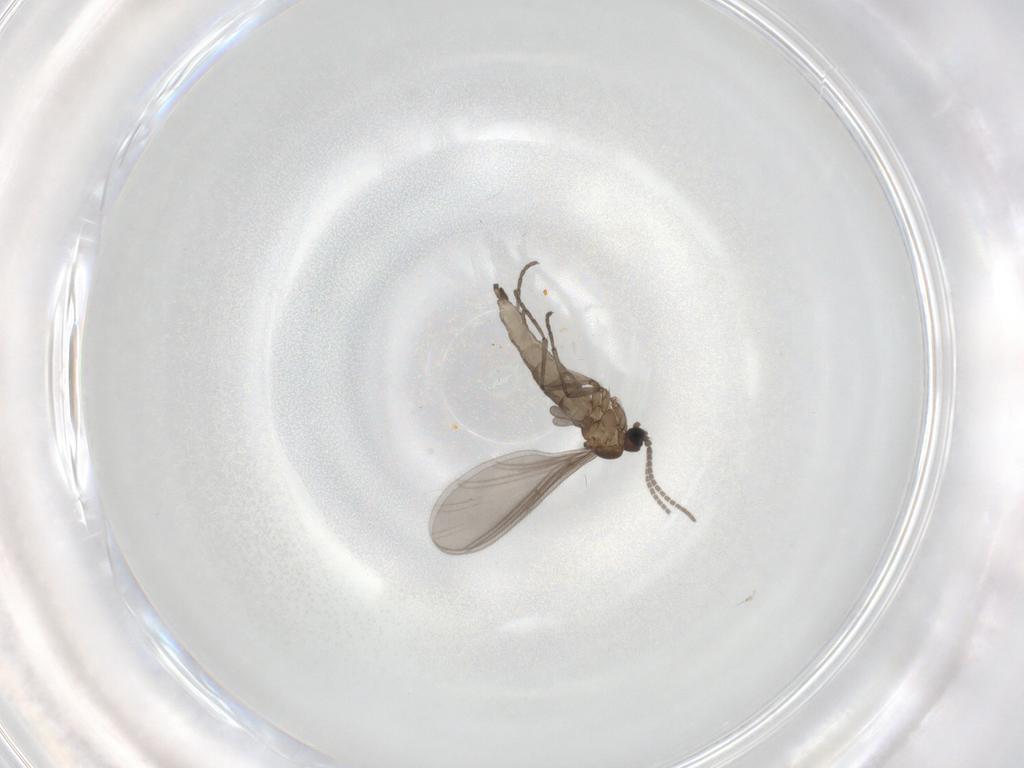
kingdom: Animalia
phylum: Arthropoda
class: Insecta
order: Diptera
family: Sciaridae
